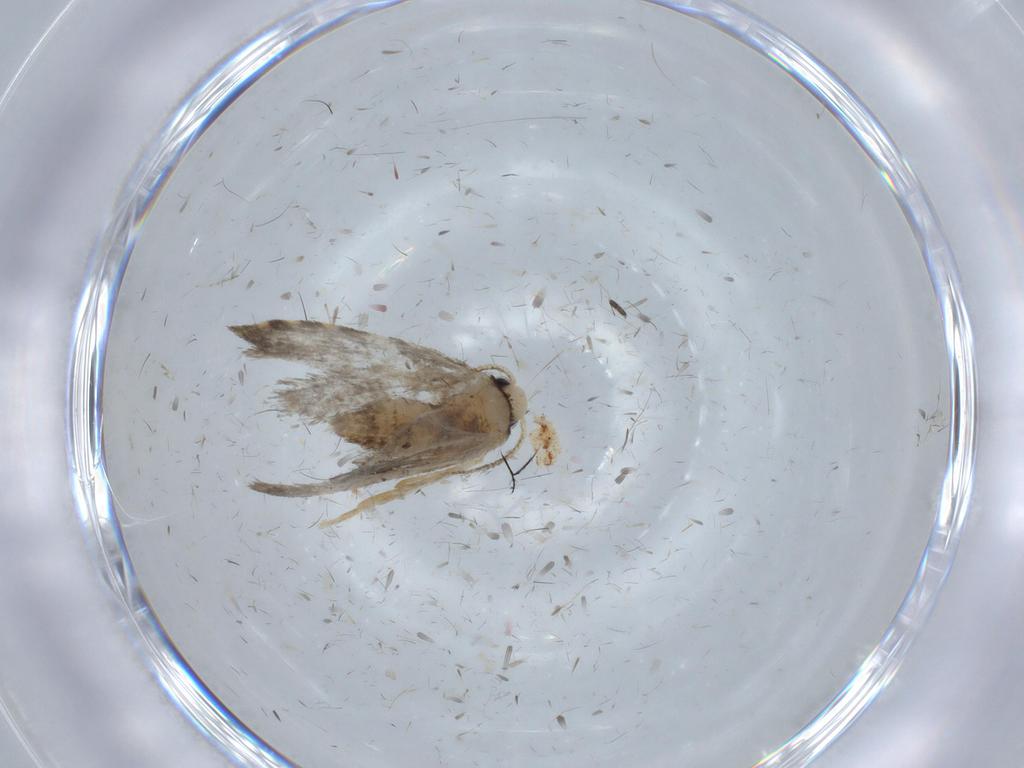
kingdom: Animalia
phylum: Arthropoda
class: Insecta
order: Lepidoptera
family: Psychidae
